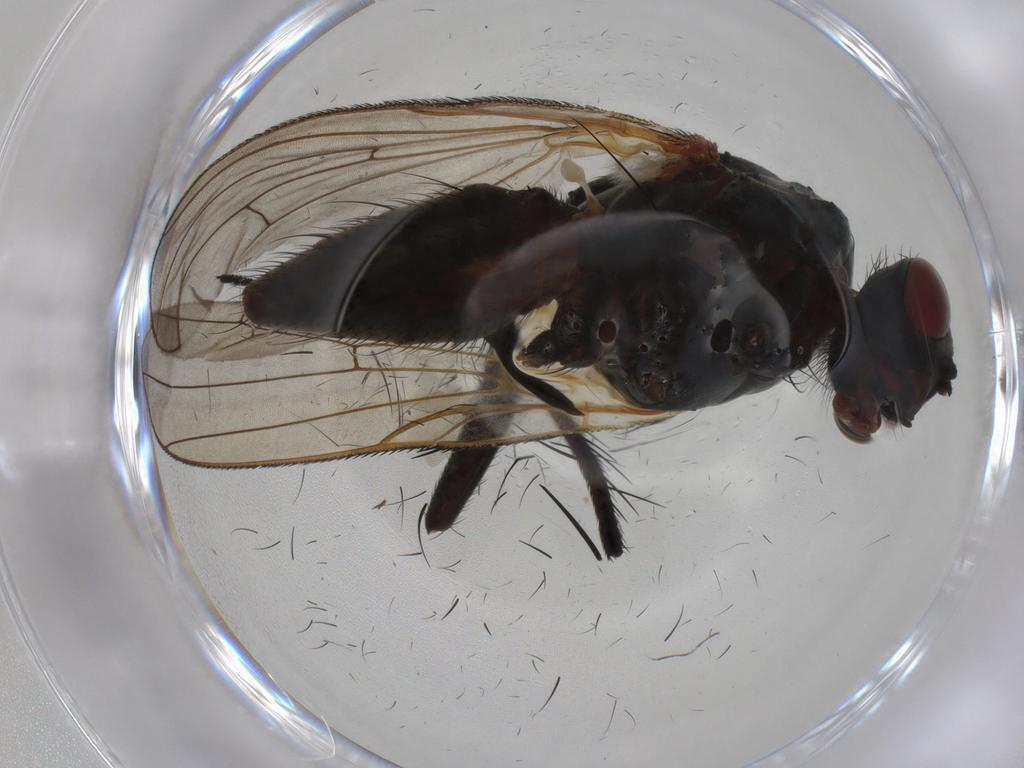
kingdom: Animalia
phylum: Arthropoda
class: Insecta
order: Diptera
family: Anthomyiidae
